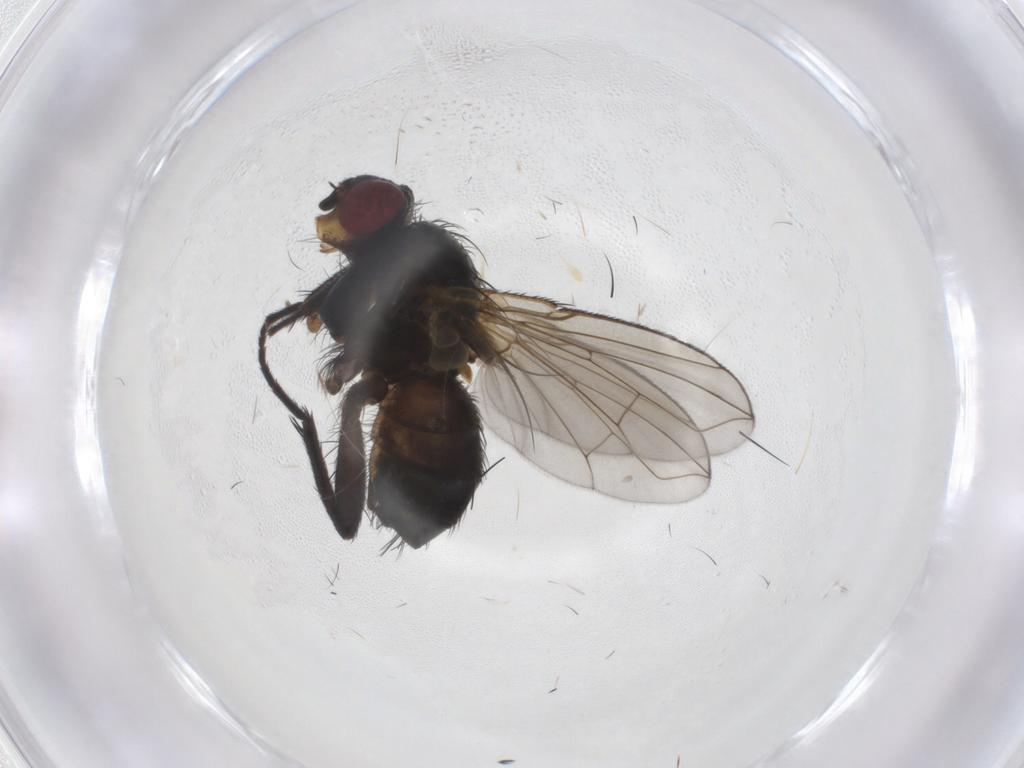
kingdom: Animalia
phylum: Arthropoda
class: Insecta
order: Diptera
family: Calliphoridae
